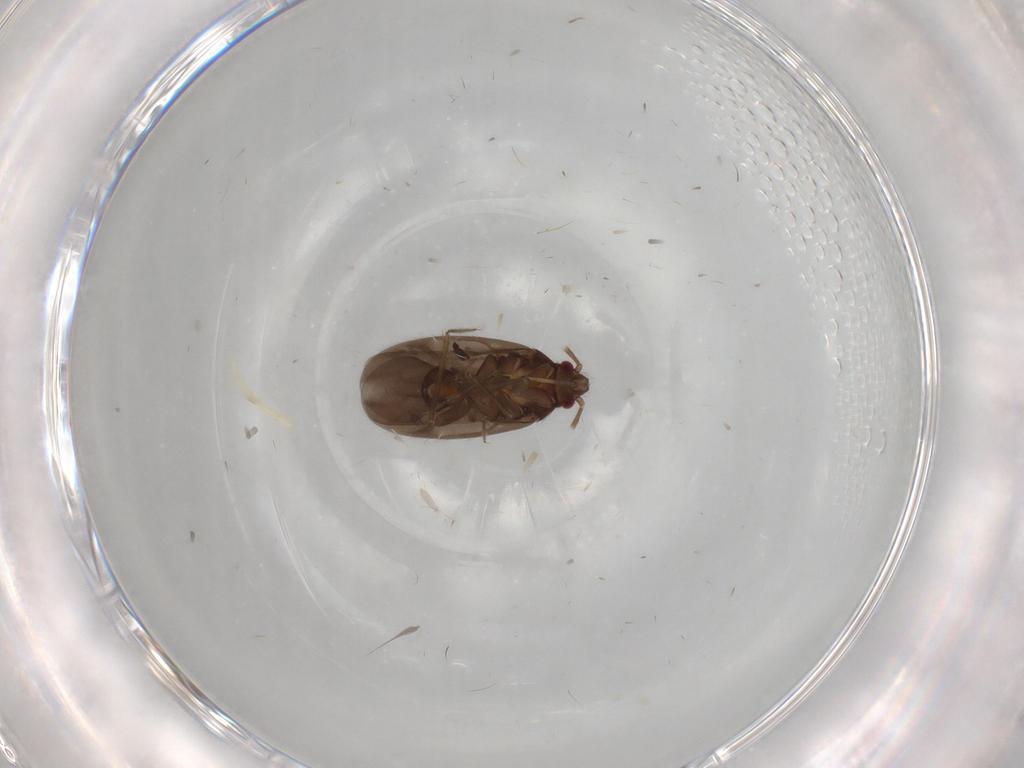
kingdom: Animalia
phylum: Arthropoda
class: Insecta
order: Hemiptera
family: Ceratocombidae
